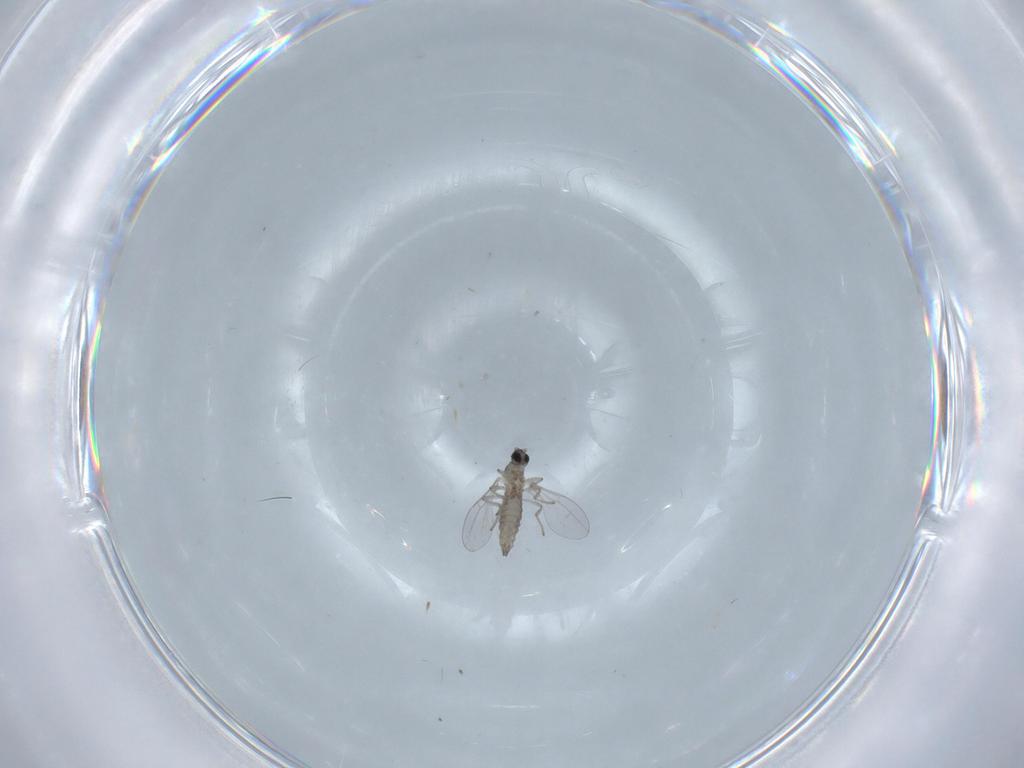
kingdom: Animalia
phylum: Arthropoda
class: Insecta
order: Diptera
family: Cecidomyiidae
